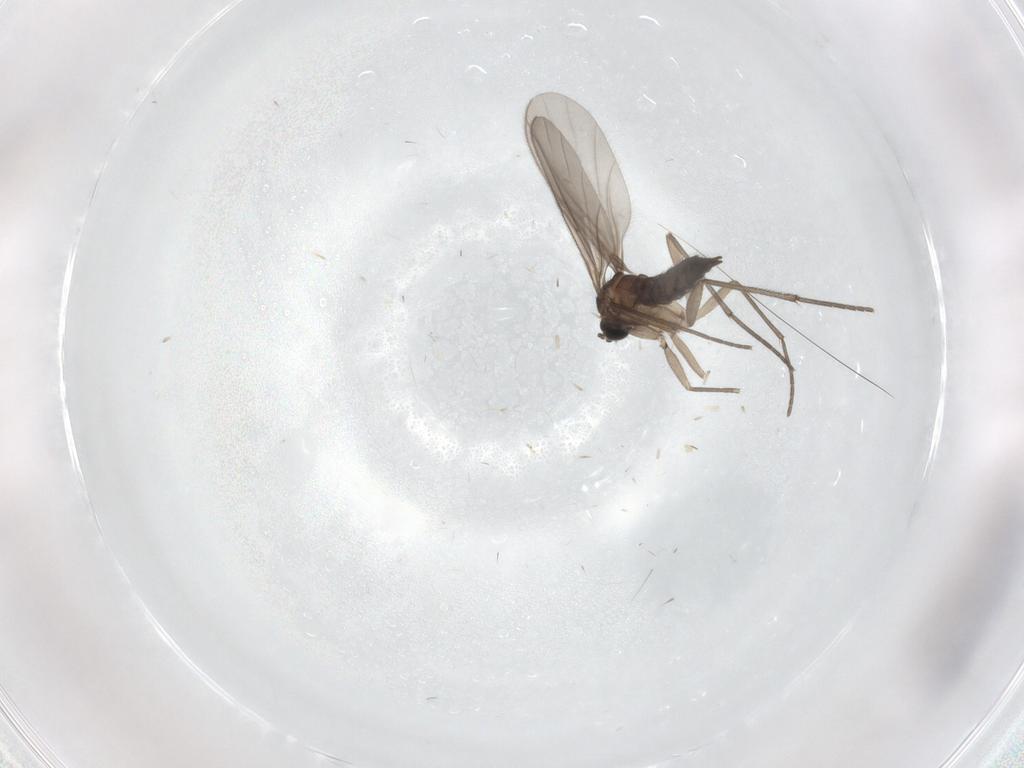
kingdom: Animalia
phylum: Arthropoda
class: Insecta
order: Diptera
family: Sciaridae
